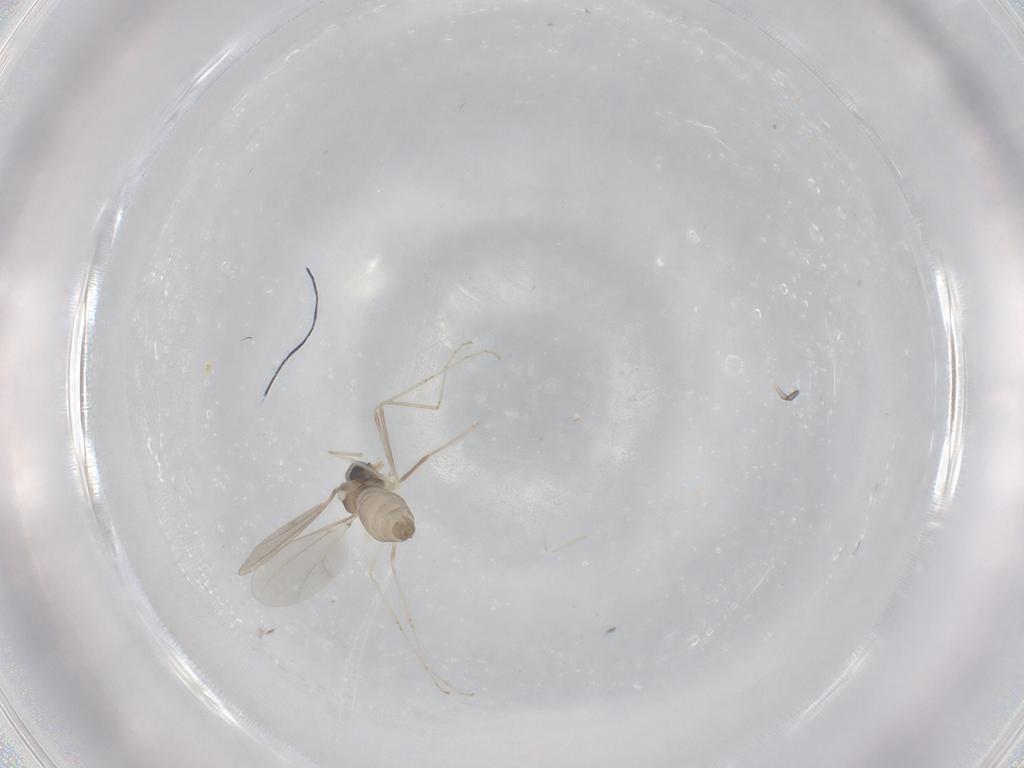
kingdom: Animalia
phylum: Arthropoda
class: Insecta
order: Diptera
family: Cecidomyiidae
